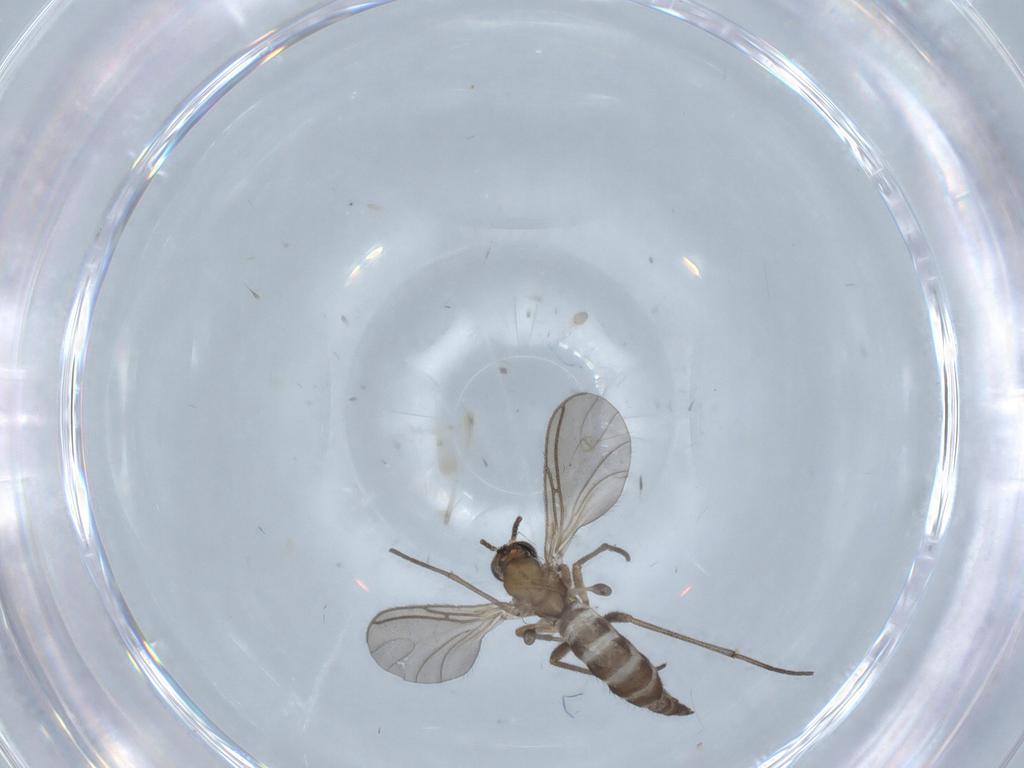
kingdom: Animalia
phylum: Arthropoda
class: Insecta
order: Diptera
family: Sciaridae
